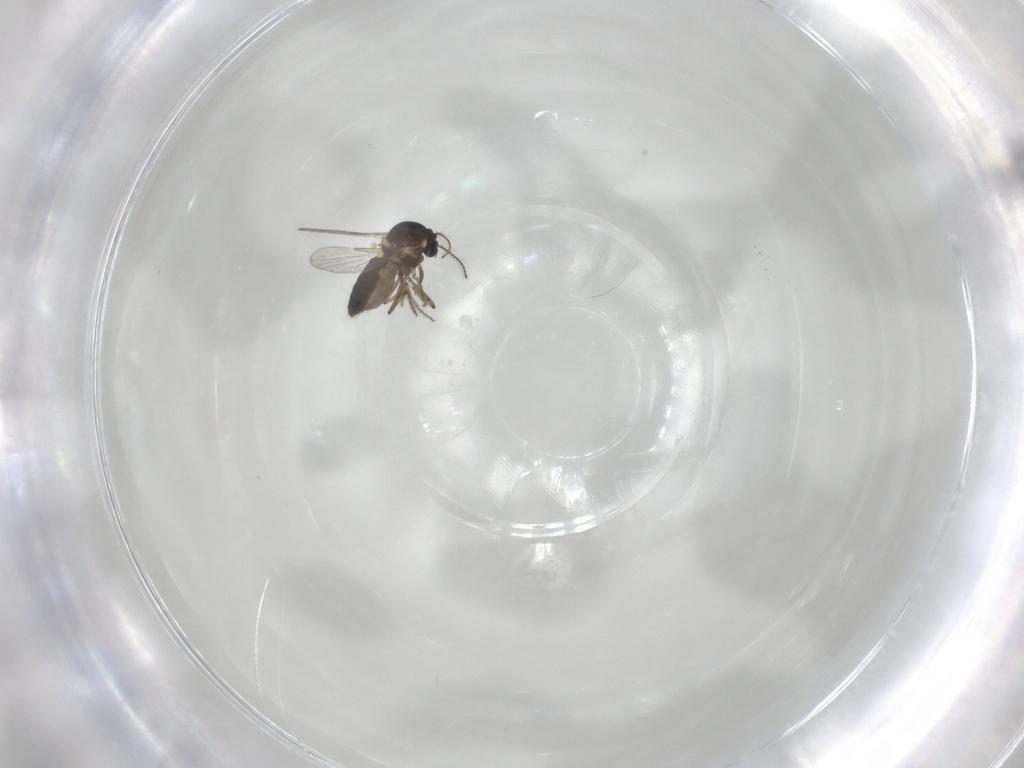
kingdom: Animalia
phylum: Arthropoda
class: Insecta
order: Diptera
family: Ceratopogonidae
